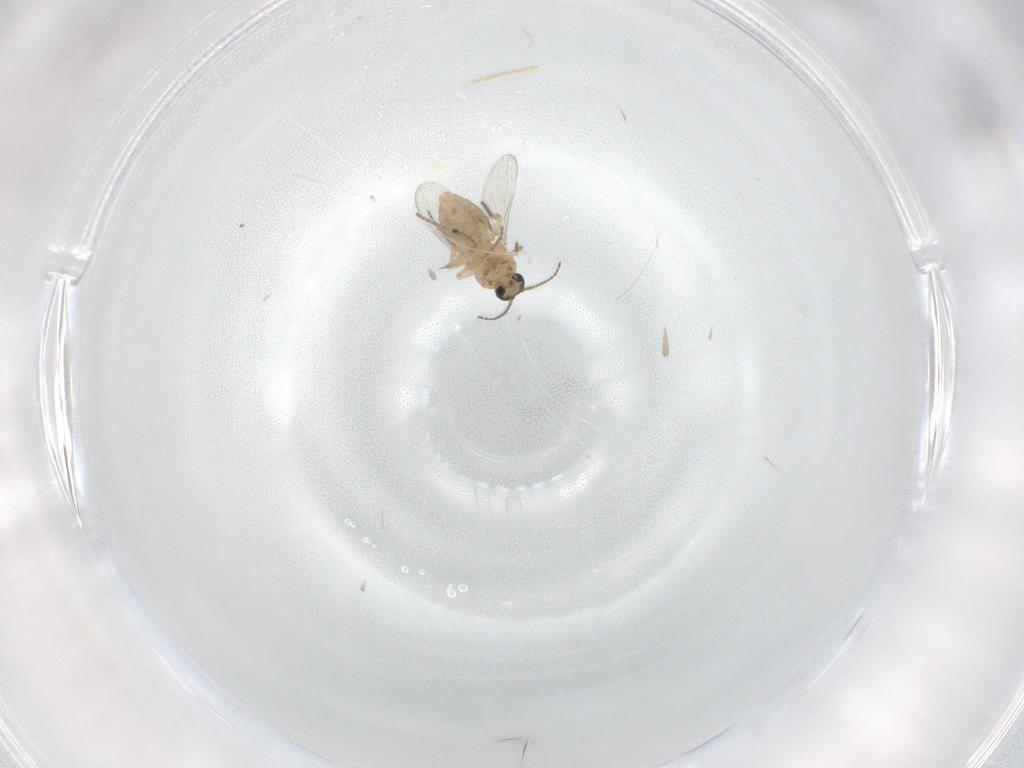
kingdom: Animalia
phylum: Arthropoda
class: Insecta
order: Diptera
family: Ceratopogonidae
